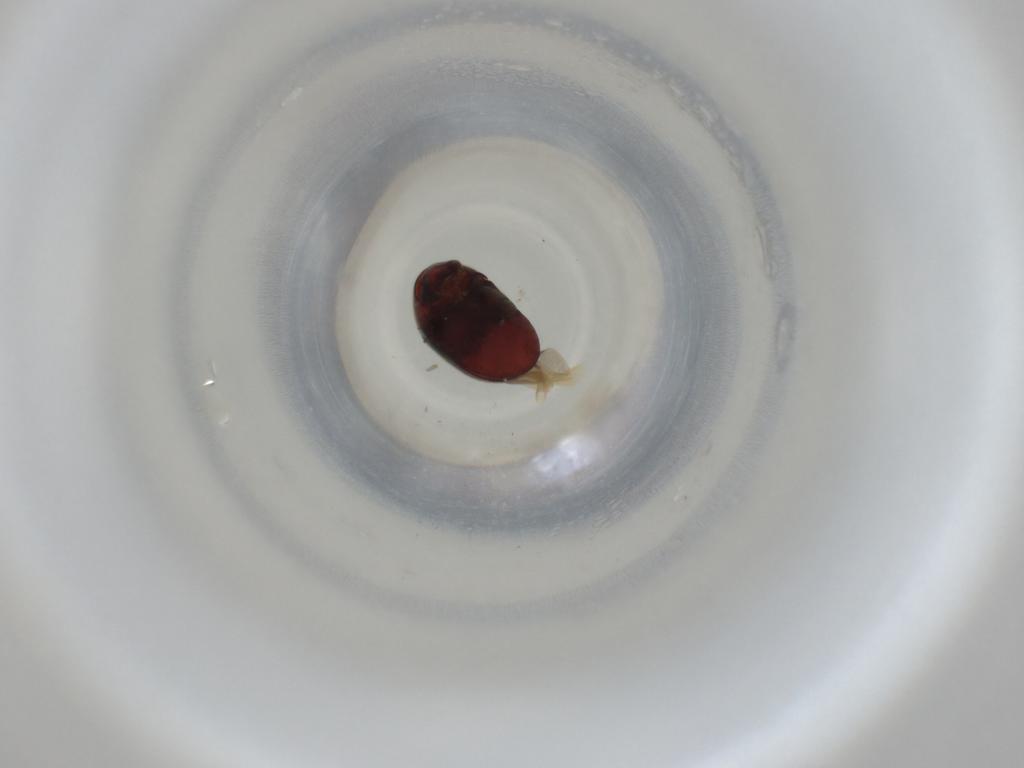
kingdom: Animalia
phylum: Arthropoda
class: Insecta
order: Coleoptera
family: Ptinidae
